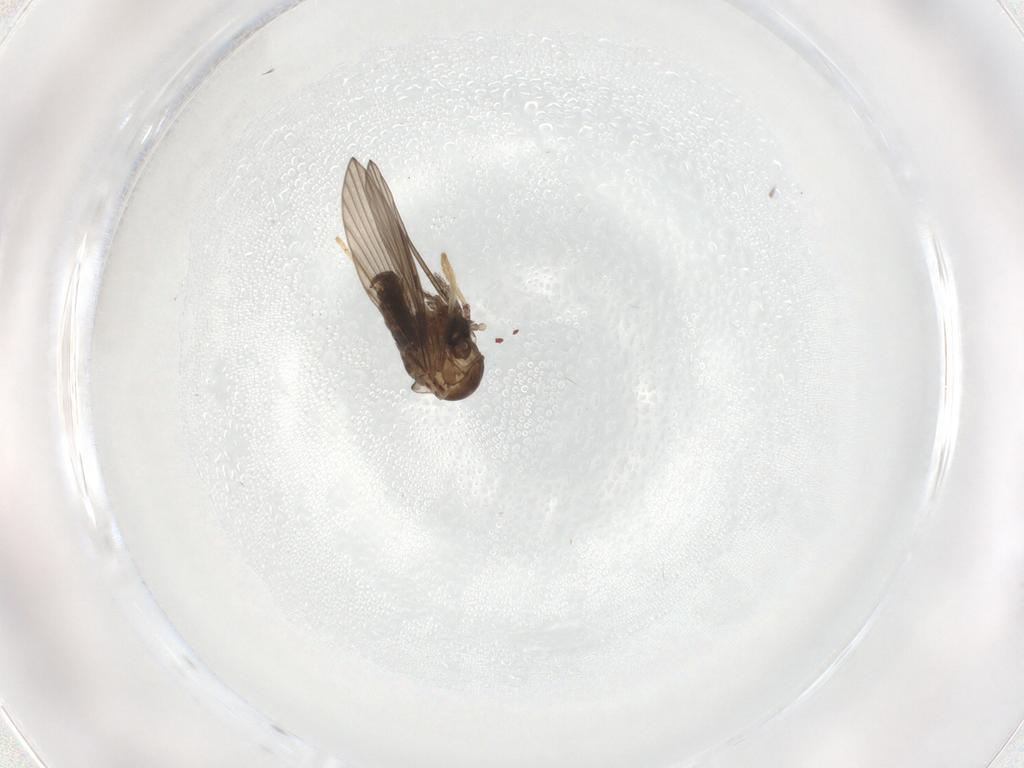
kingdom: Animalia
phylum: Arthropoda
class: Insecta
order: Diptera
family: Psychodidae
